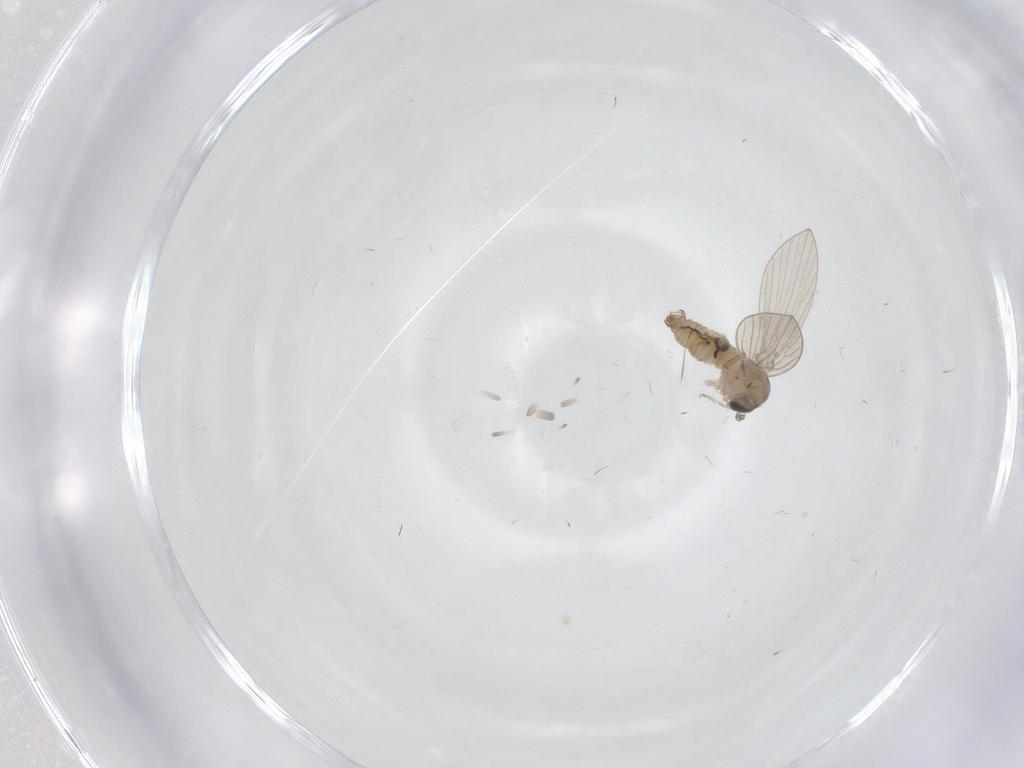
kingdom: Animalia
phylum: Arthropoda
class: Insecta
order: Diptera
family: Psychodidae
